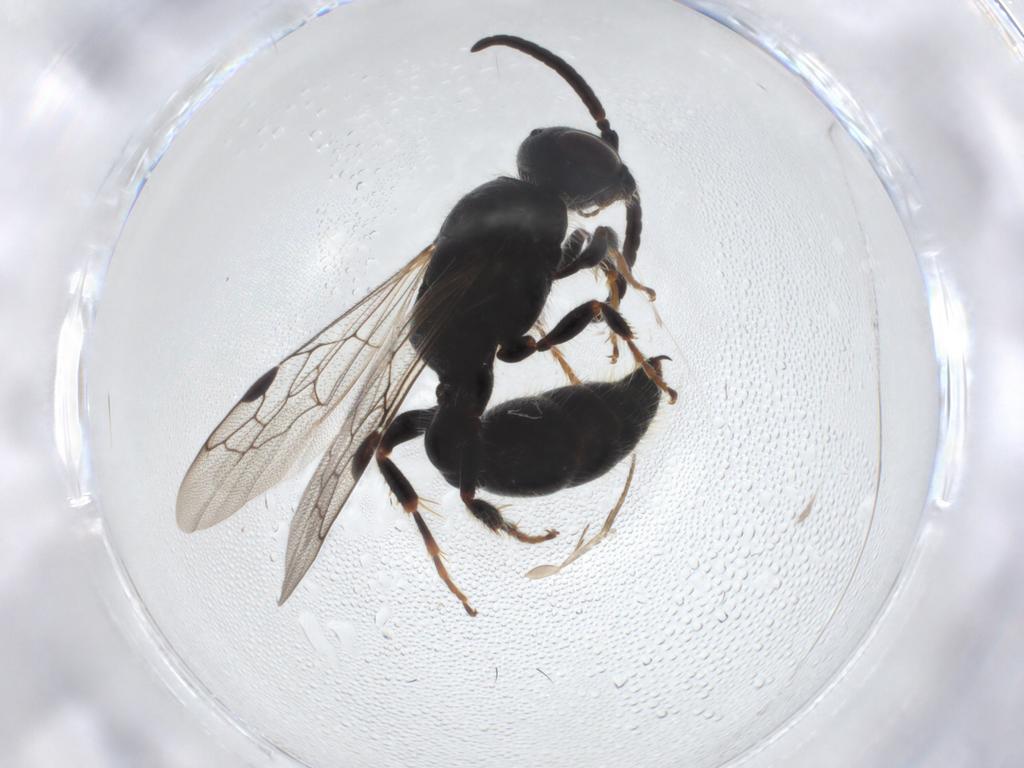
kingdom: Animalia
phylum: Arthropoda
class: Insecta
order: Hymenoptera
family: Tiphiidae
